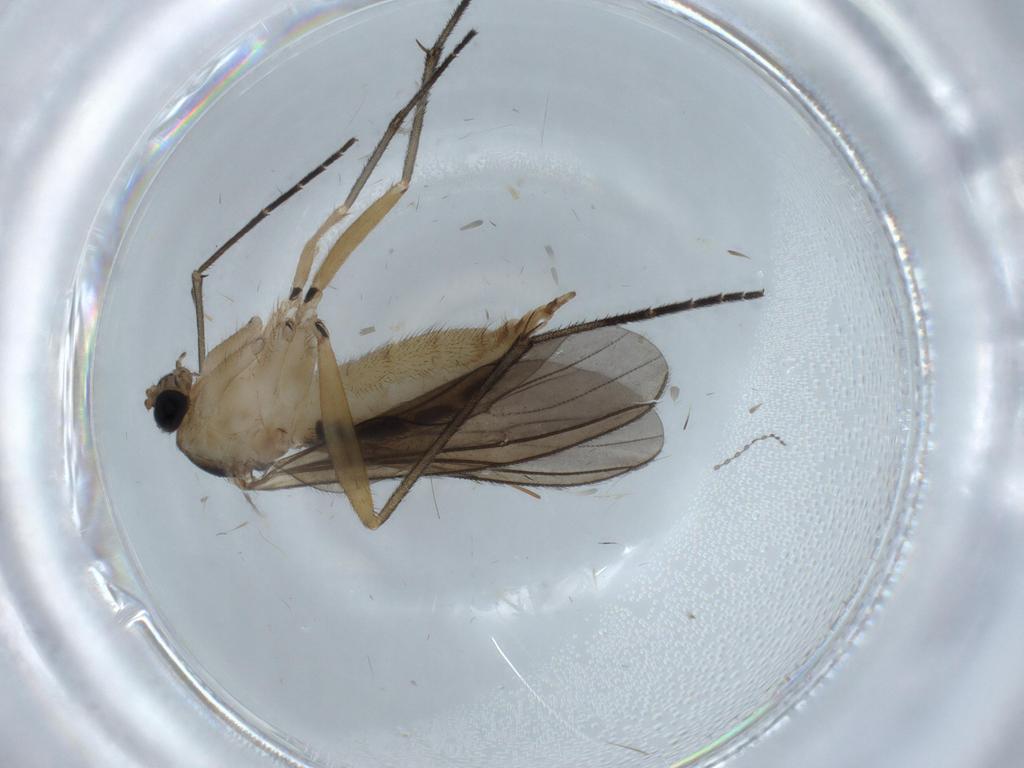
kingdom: Animalia
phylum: Arthropoda
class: Insecta
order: Diptera
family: Sciaridae
